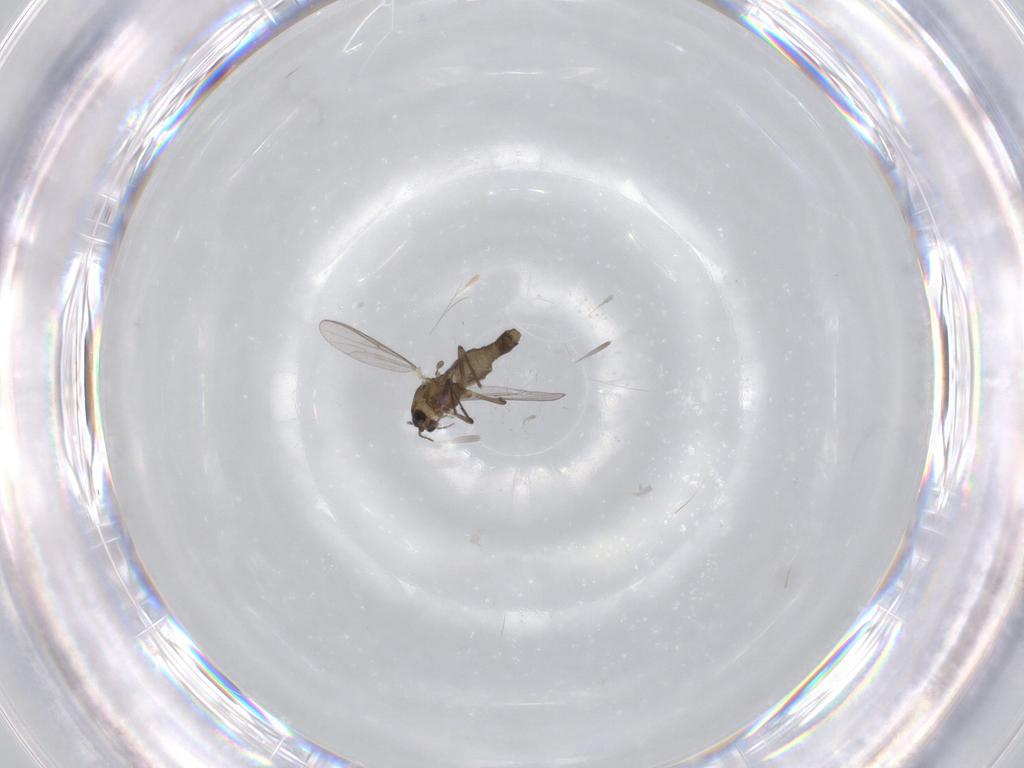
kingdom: Animalia
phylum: Arthropoda
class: Insecta
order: Diptera
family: Chironomidae
